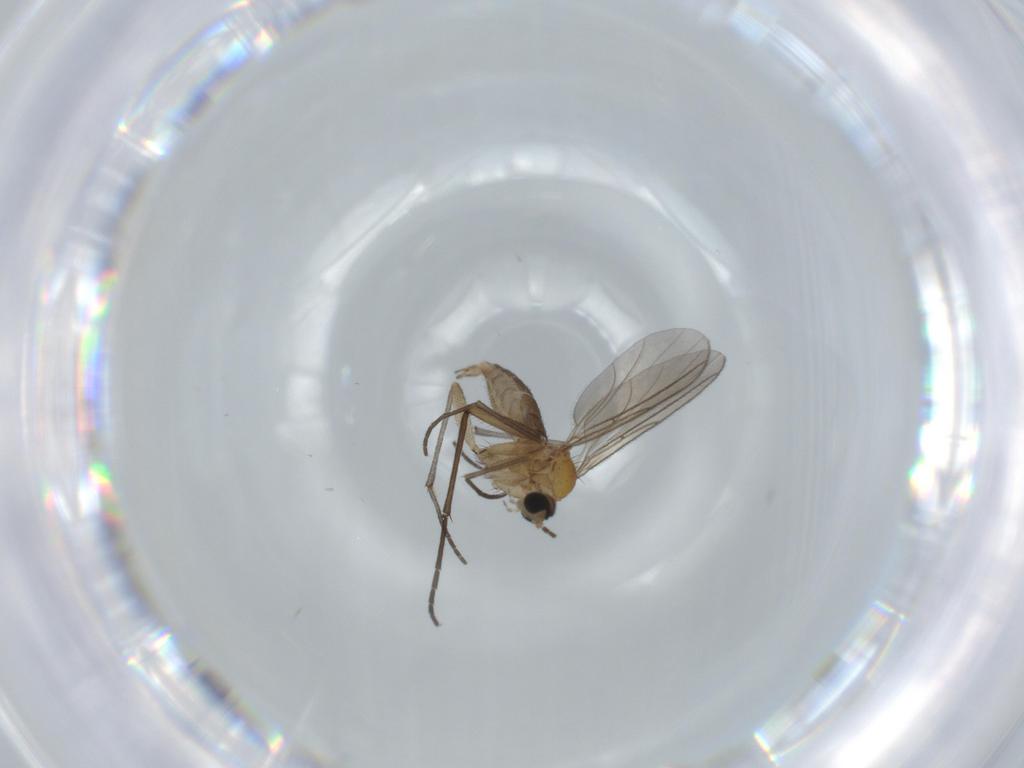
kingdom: Animalia
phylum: Arthropoda
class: Insecta
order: Diptera
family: Sciaridae
